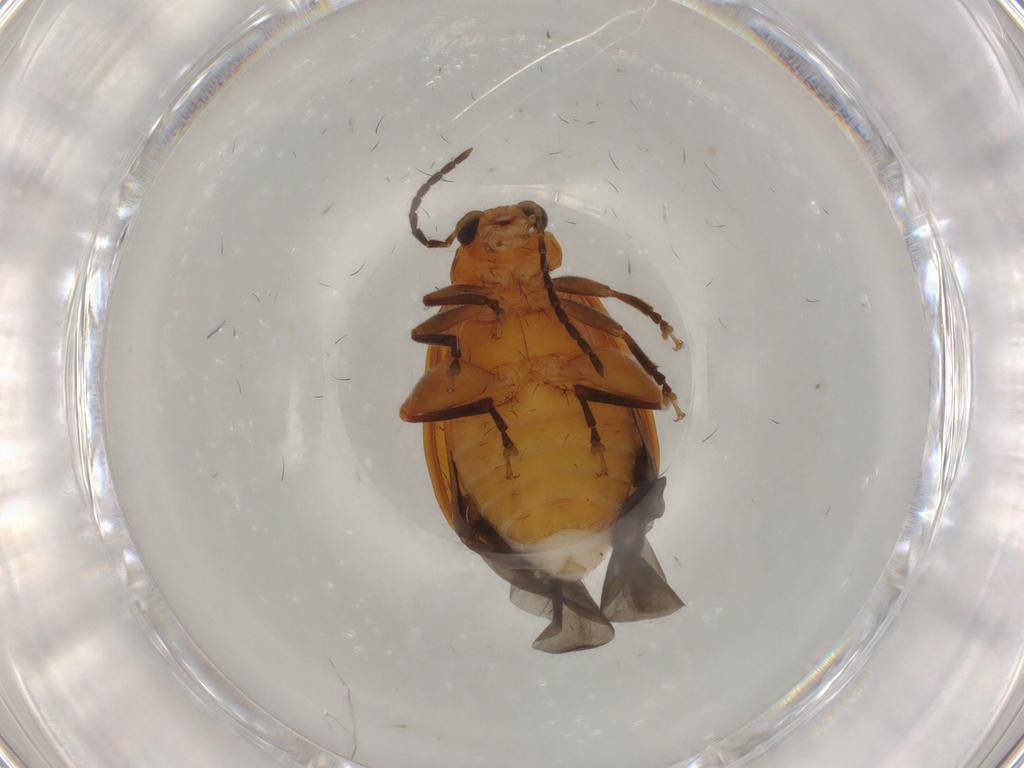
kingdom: Animalia
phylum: Arthropoda
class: Insecta
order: Coleoptera
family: Chrysomelidae
